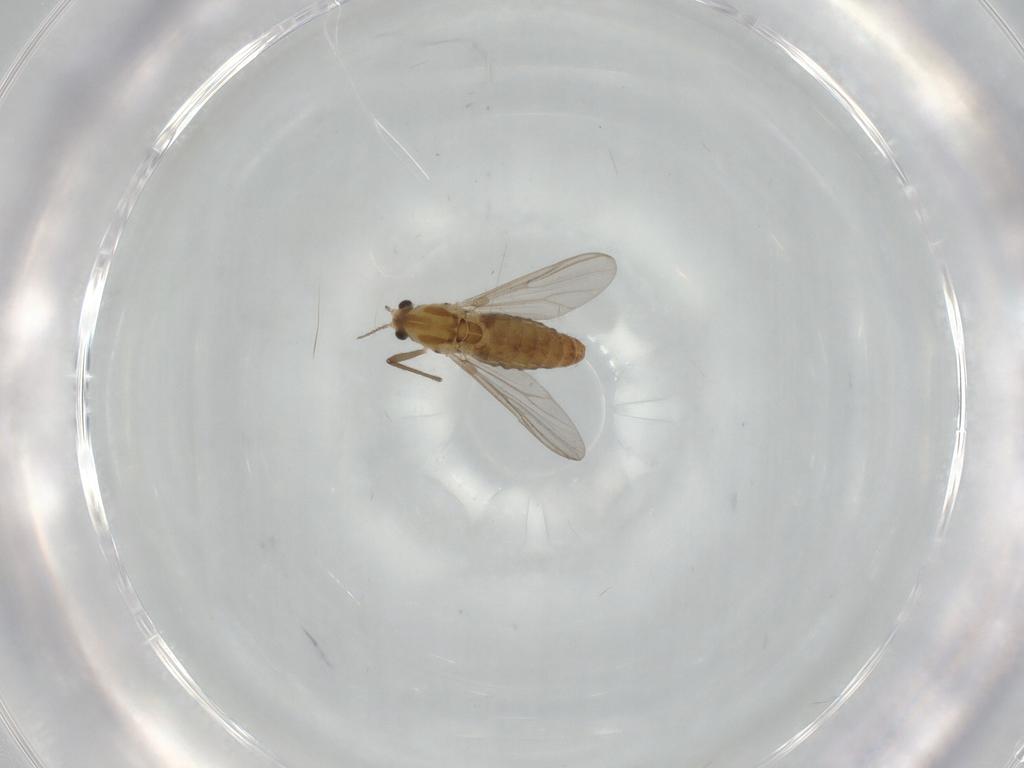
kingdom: Animalia
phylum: Arthropoda
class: Insecta
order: Diptera
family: Chironomidae
